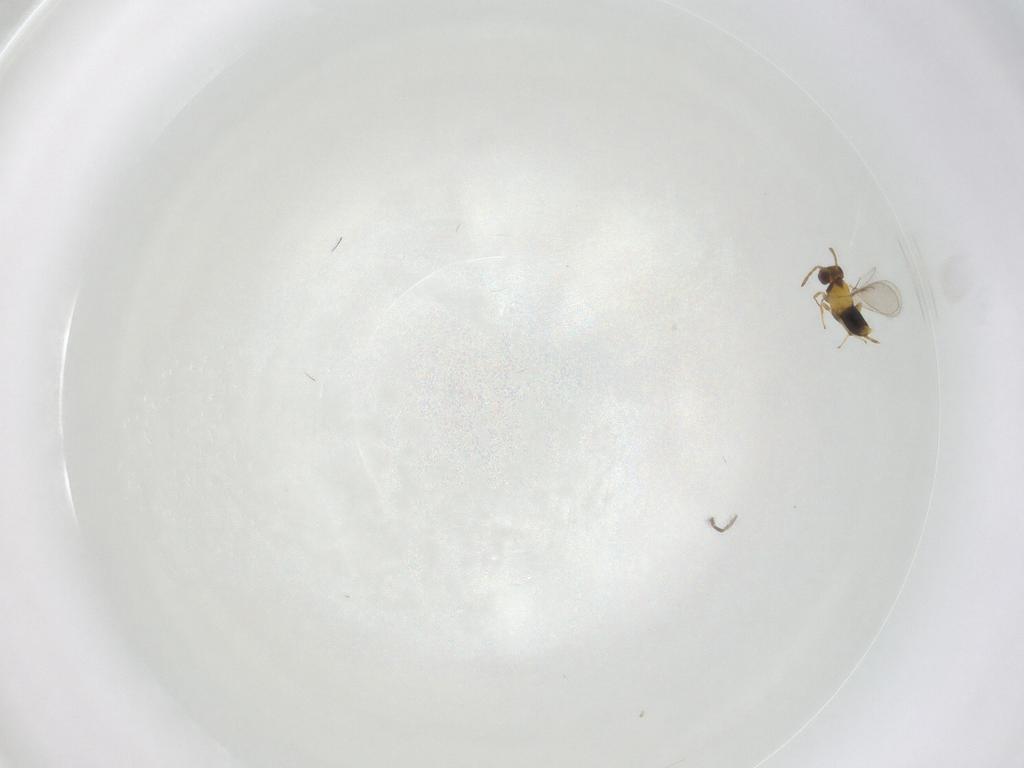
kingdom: Animalia
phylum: Arthropoda
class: Insecta
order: Hymenoptera
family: Aphelinidae
